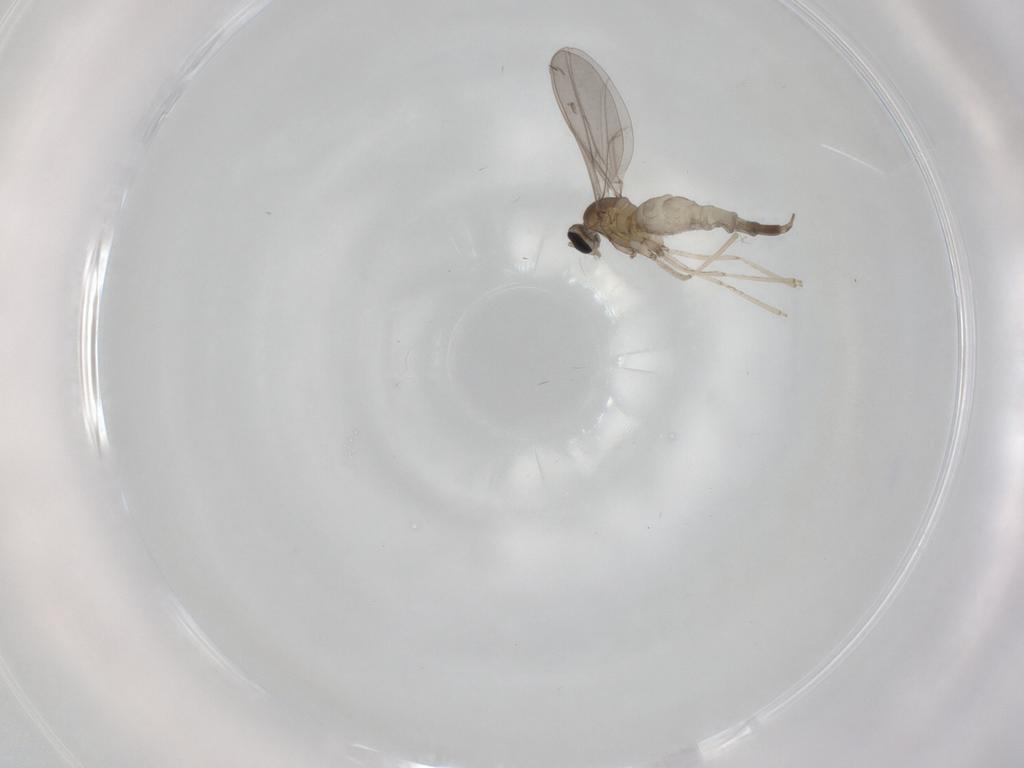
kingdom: Animalia
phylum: Arthropoda
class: Insecta
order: Diptera
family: Cecidomyiidae
